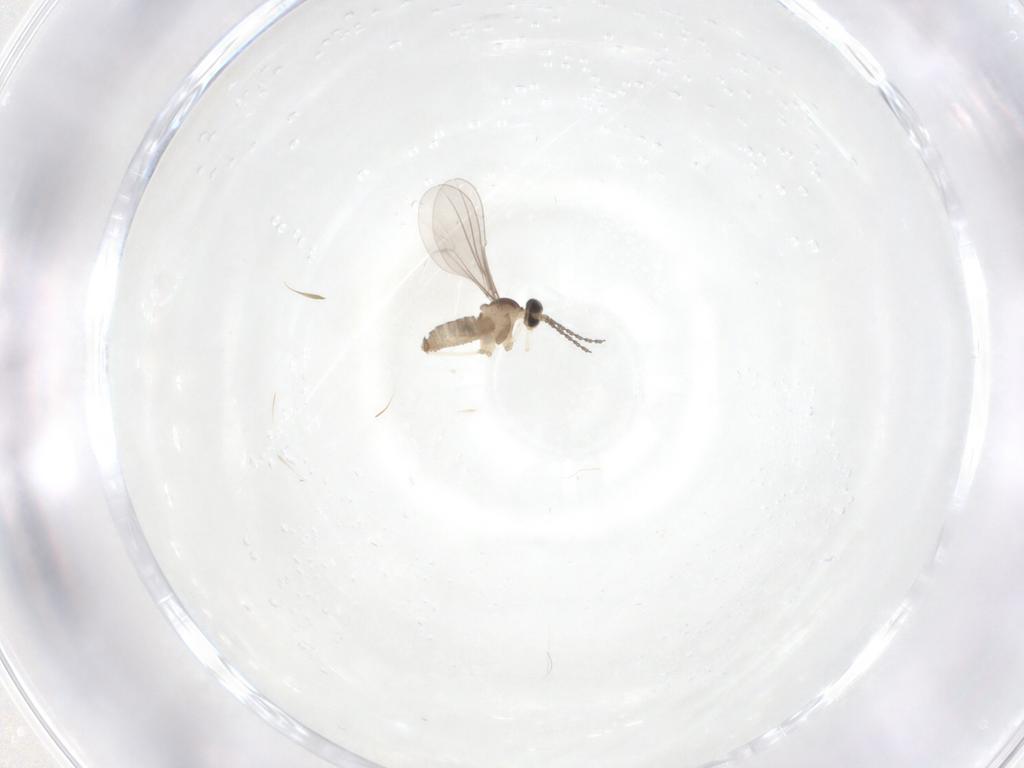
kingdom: Animalia
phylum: Arthropoda
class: Insecta
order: Diptera
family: Cecidomyiidae
